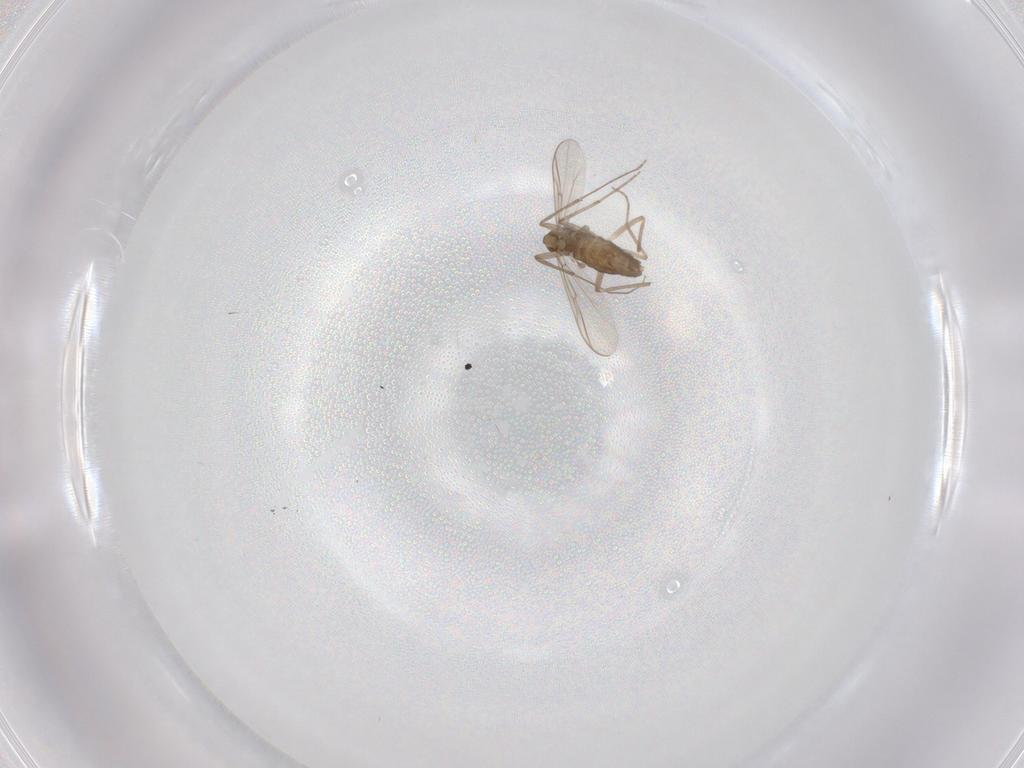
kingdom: Animalia
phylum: Arthropoda
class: Insecta
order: Diptera
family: Chironomidae
